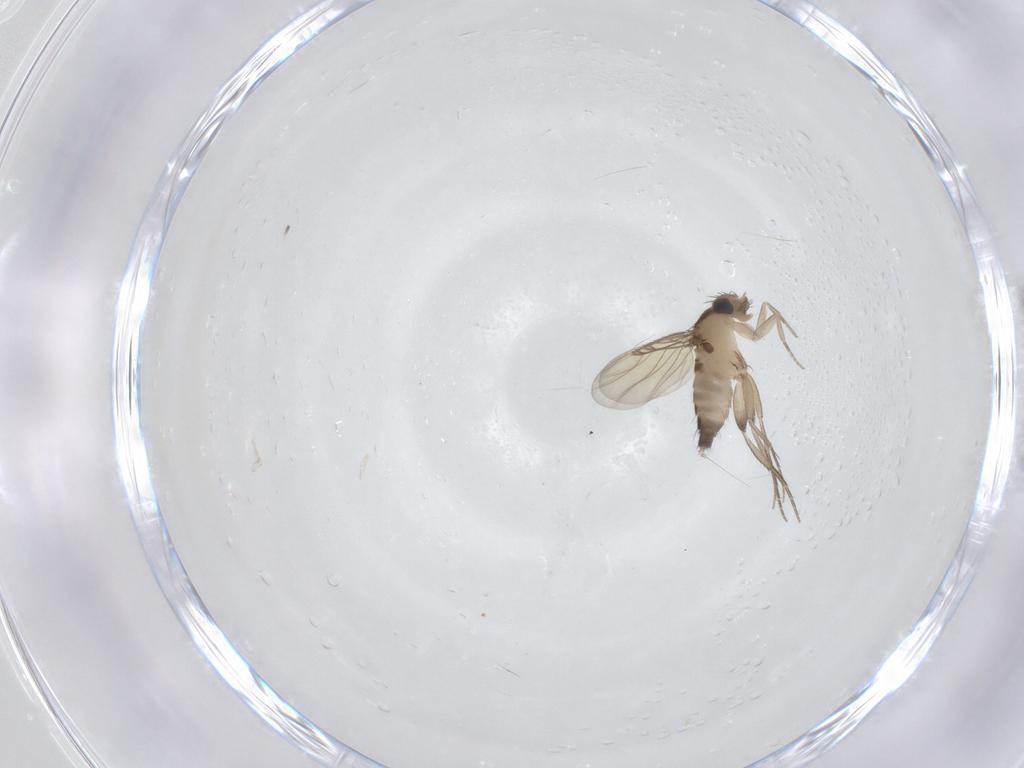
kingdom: Animalia
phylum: Arthropoda
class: Insecta
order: Diptera
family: Phoridae
